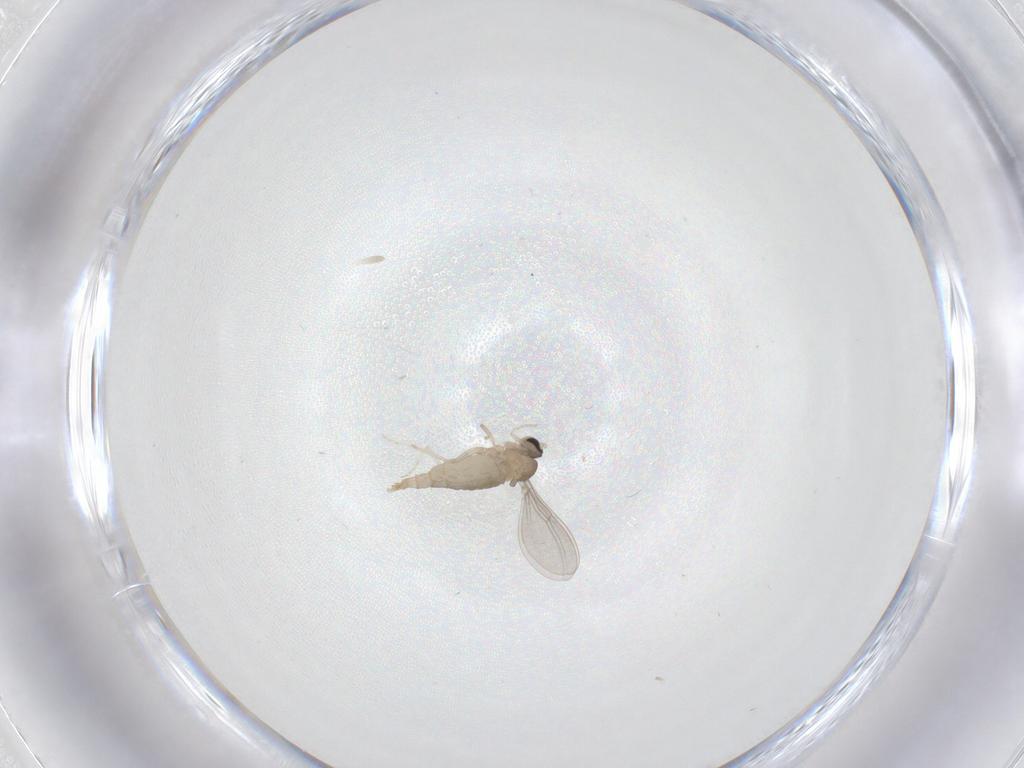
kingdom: Animalia
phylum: Arthropoda
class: Insecta
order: Diptera
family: Cecidomyiidae
